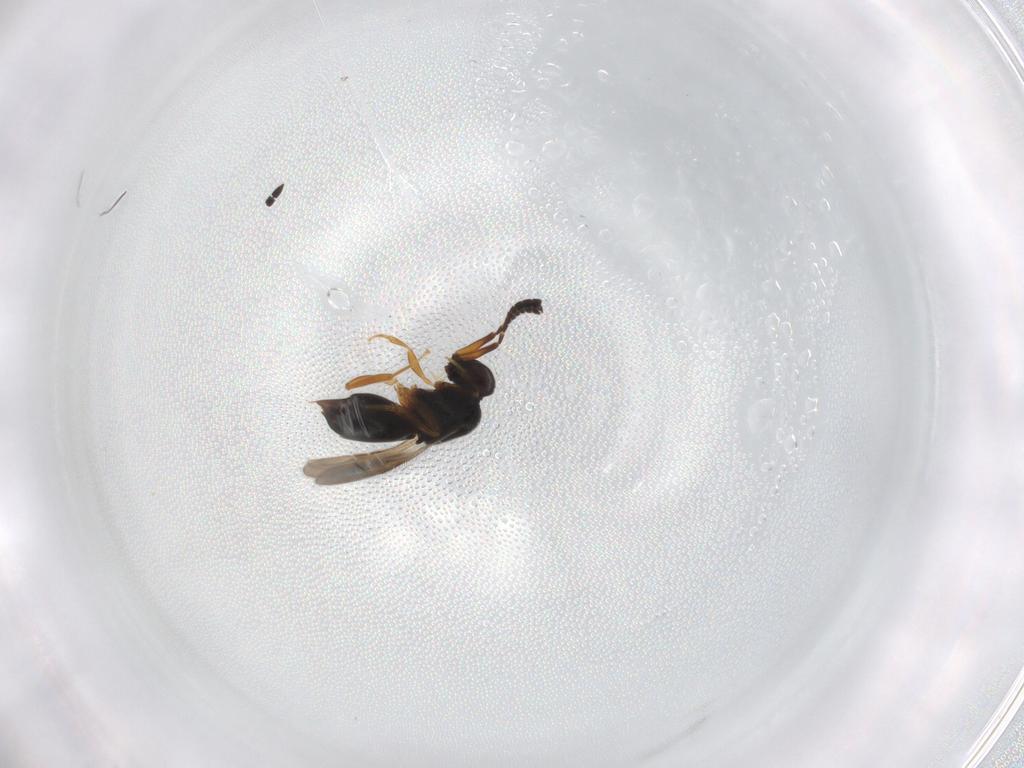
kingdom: Animalia
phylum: Arthropoda
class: Insecta
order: Hymenoptera
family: Ceraphronidae
